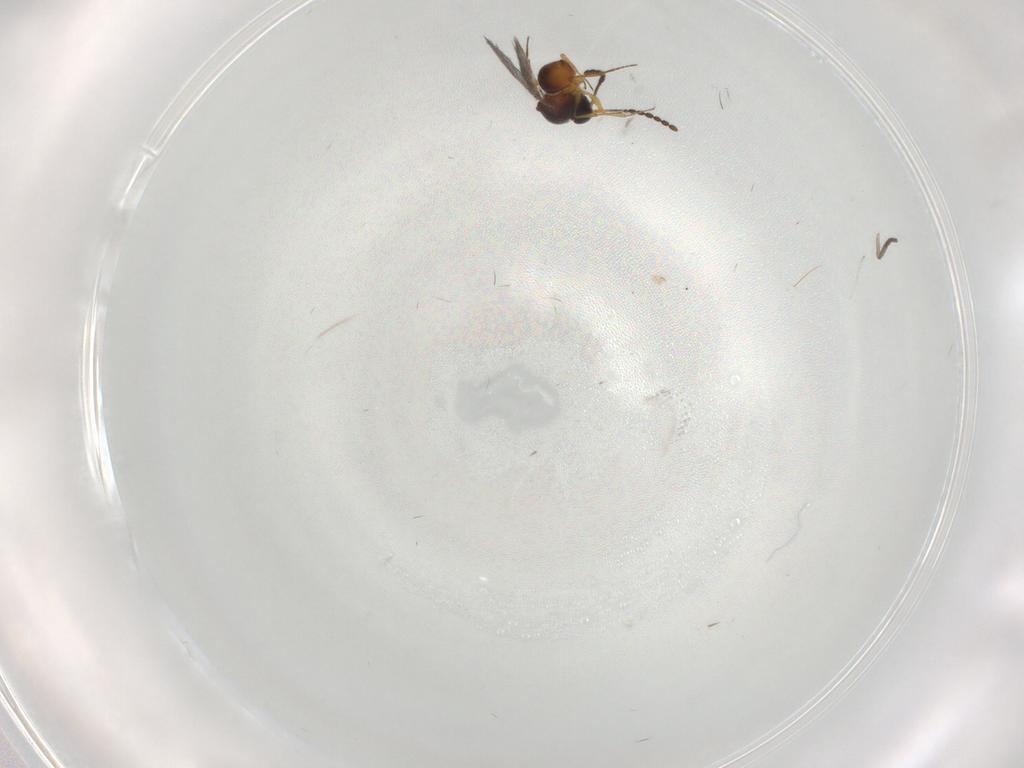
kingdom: Animalia
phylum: Arthropoda
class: Insecta
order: Hymenoptera
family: Figitidae
